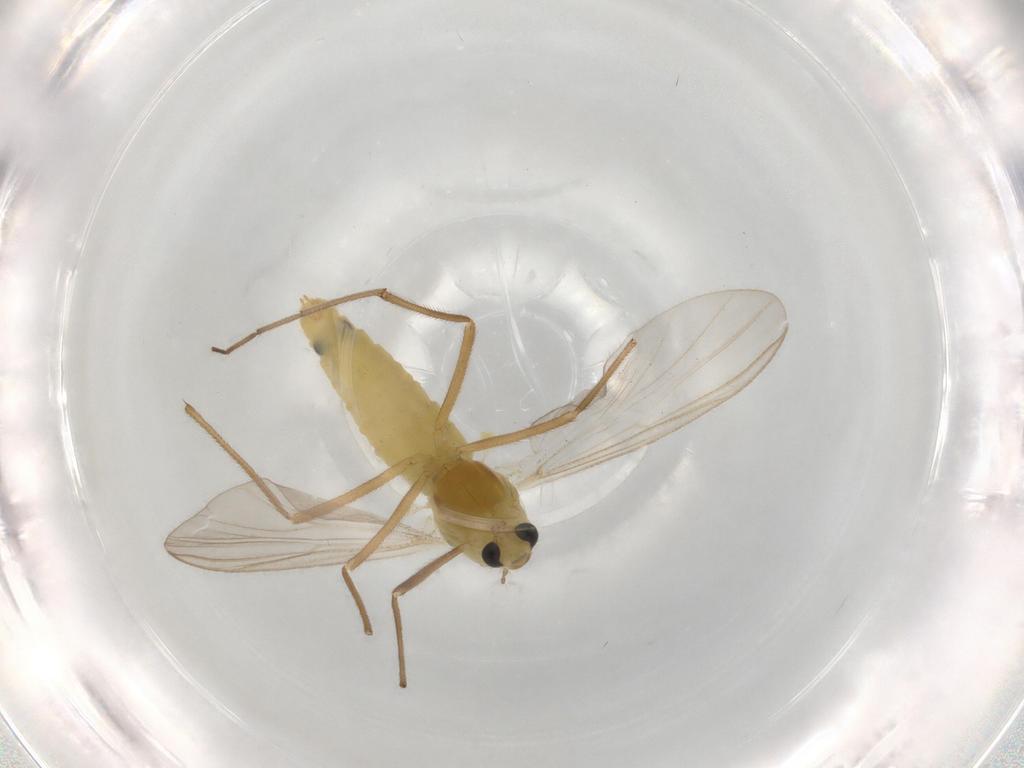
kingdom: Animalia
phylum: Arthropoda
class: Insecta
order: Diptera
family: Chironomidae
